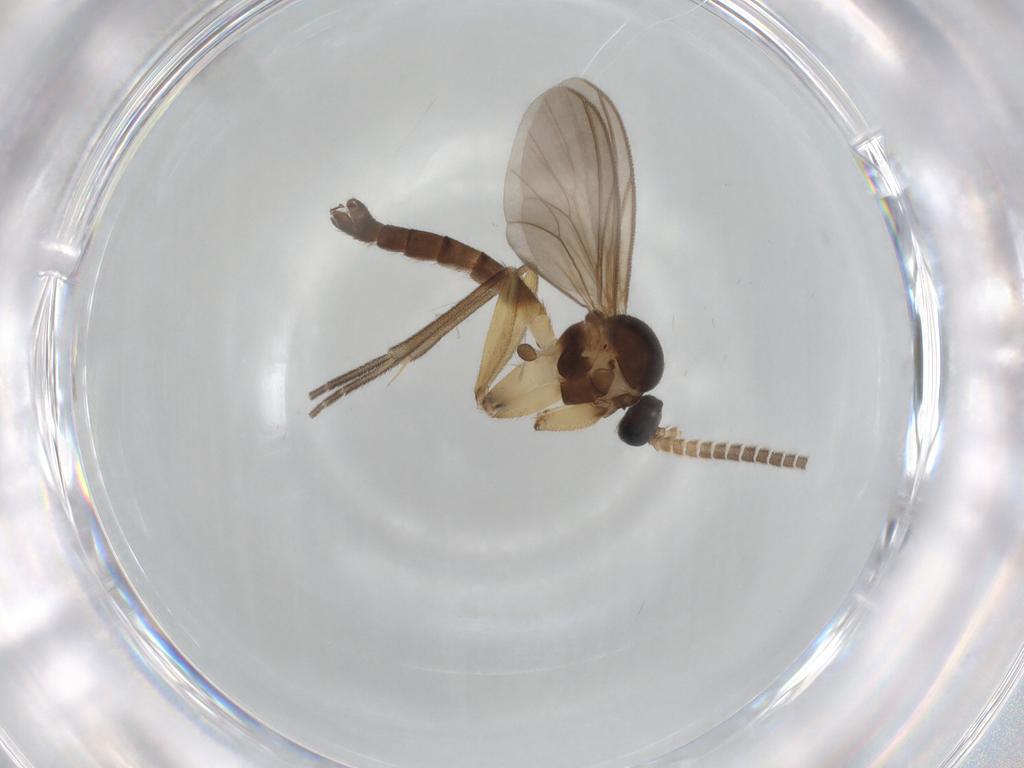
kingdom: Animalia
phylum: Arthropoda
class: Insecta
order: Diptera
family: Mycetophilidae
